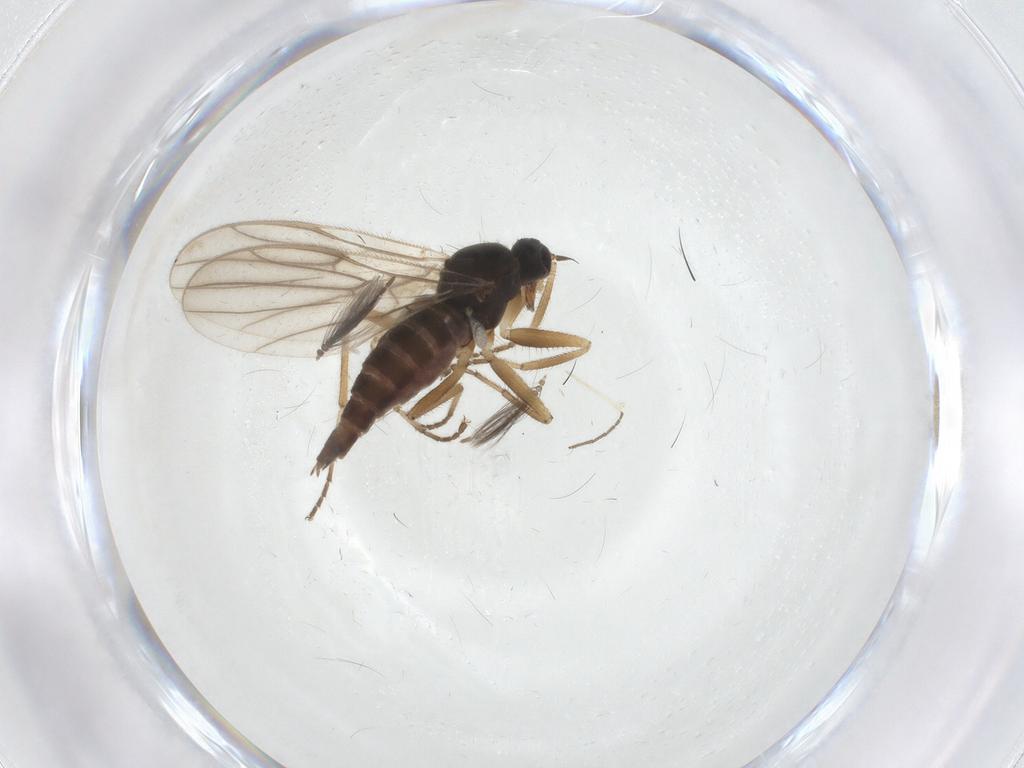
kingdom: Animalia
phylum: Arthropoda
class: Insecta
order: Diptera
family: Hybotidae
